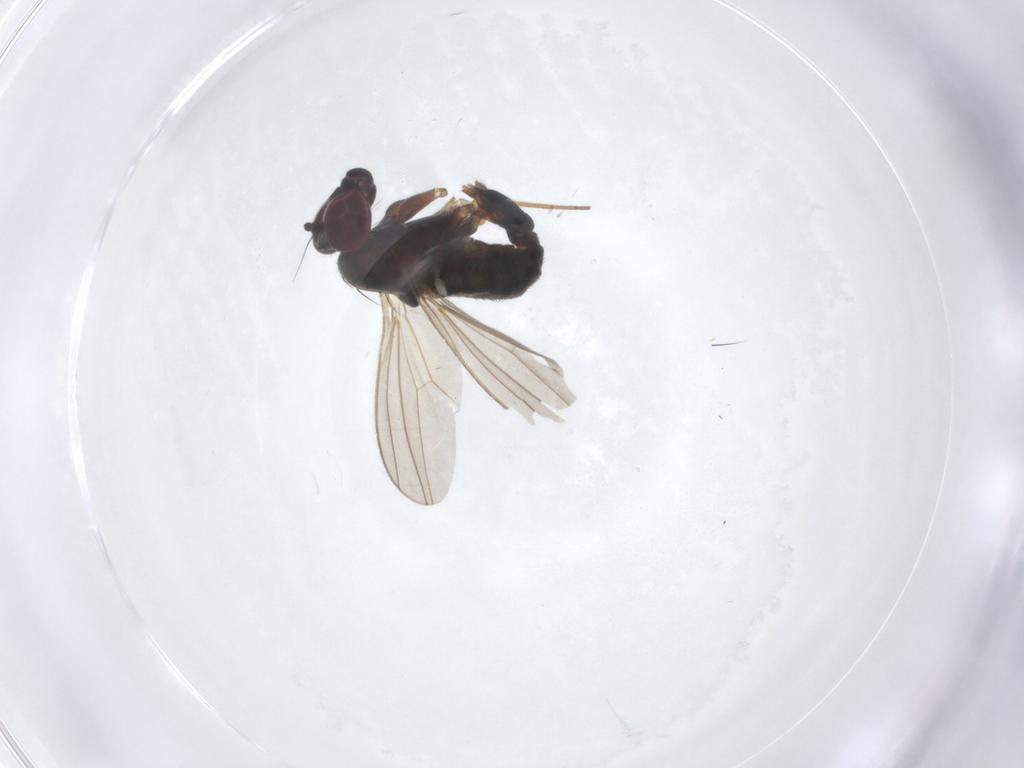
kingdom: Animalia
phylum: Arthropoda
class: Insecta
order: Diptera
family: Dolichopodidae
